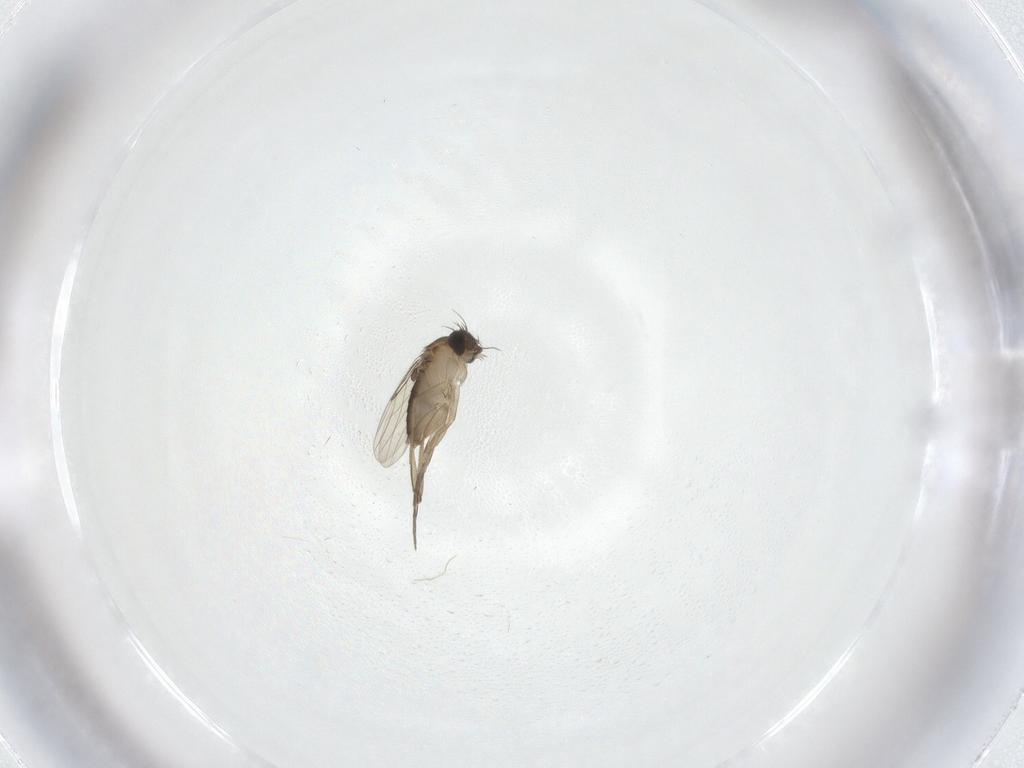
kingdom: Animalia
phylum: Arthropoda
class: Insecta
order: Diptera
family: Phoridae
